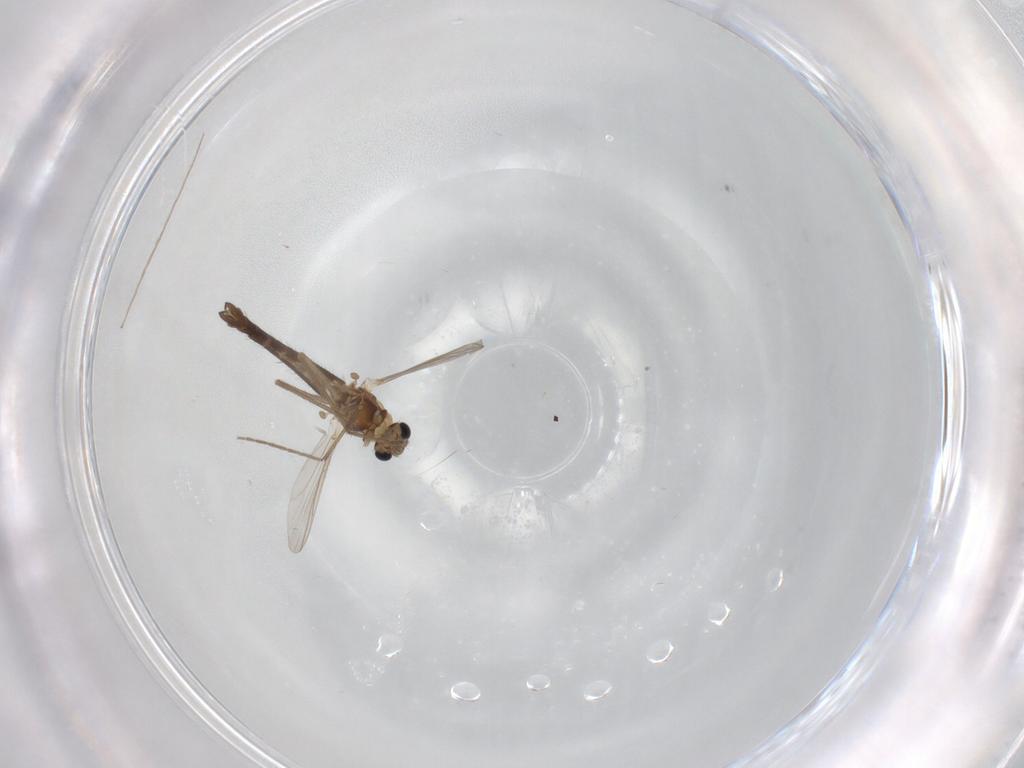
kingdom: Animalia
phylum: Arthropoda
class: Insecta
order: Diptera
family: Chironomidae
